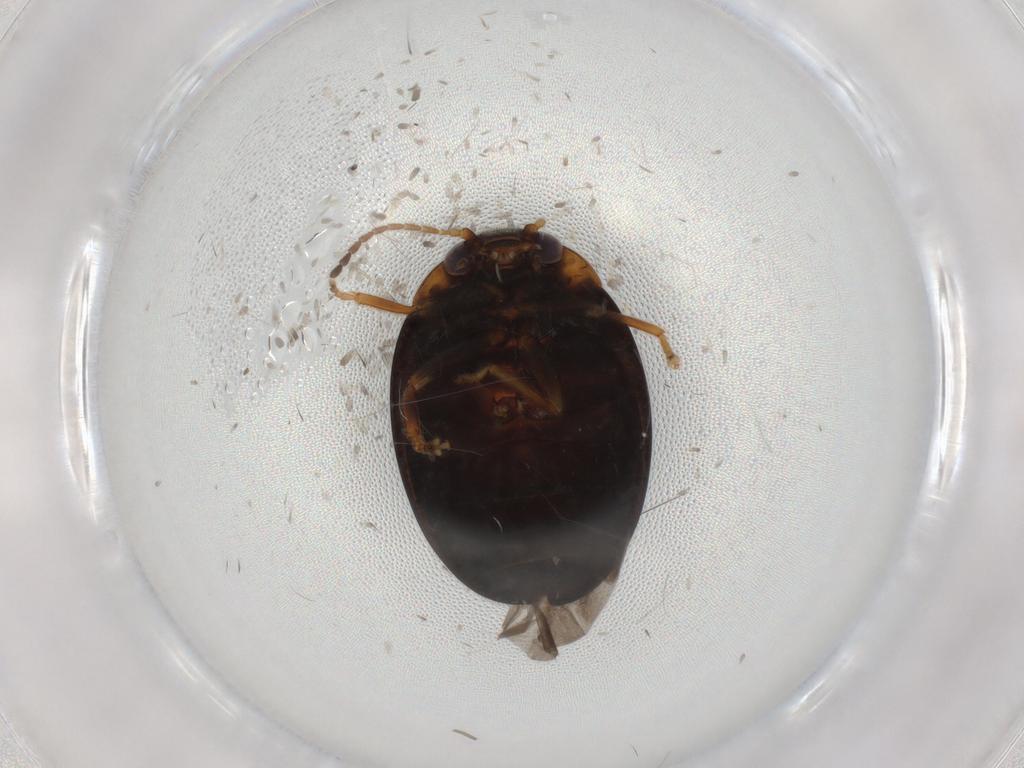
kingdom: Animalia
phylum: Arthropoda
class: Insecta
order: Coleoptera
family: Scirtidae
